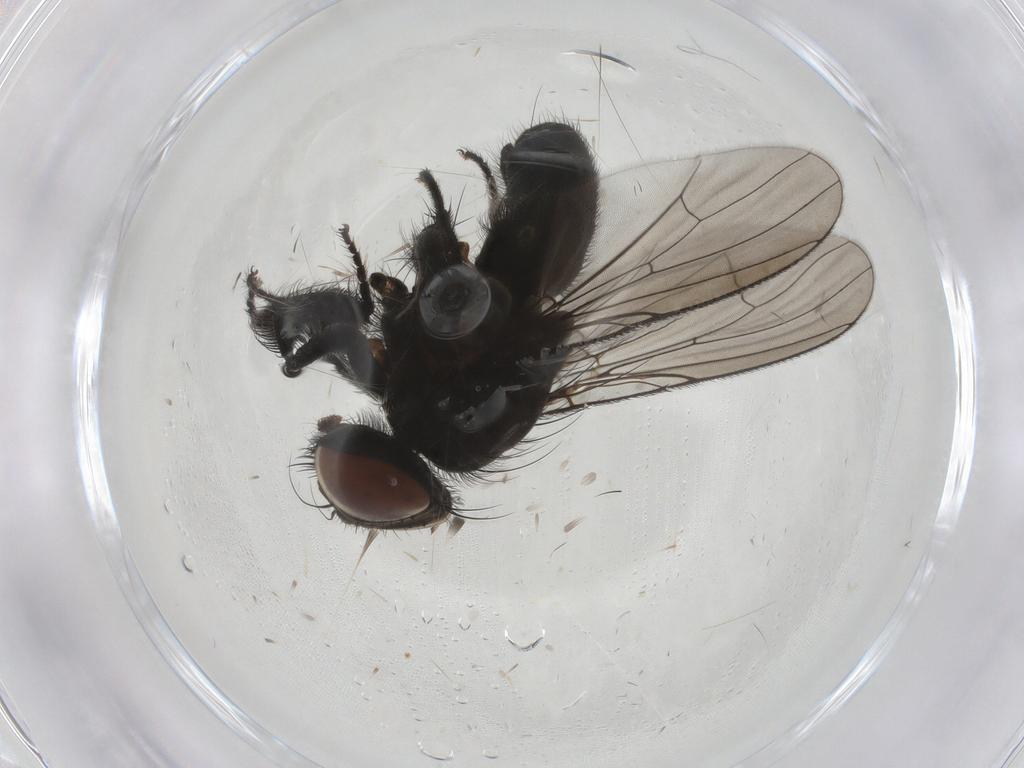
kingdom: Animalia
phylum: Arthropoda
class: Insecta
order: Diptera
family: Muscidae
